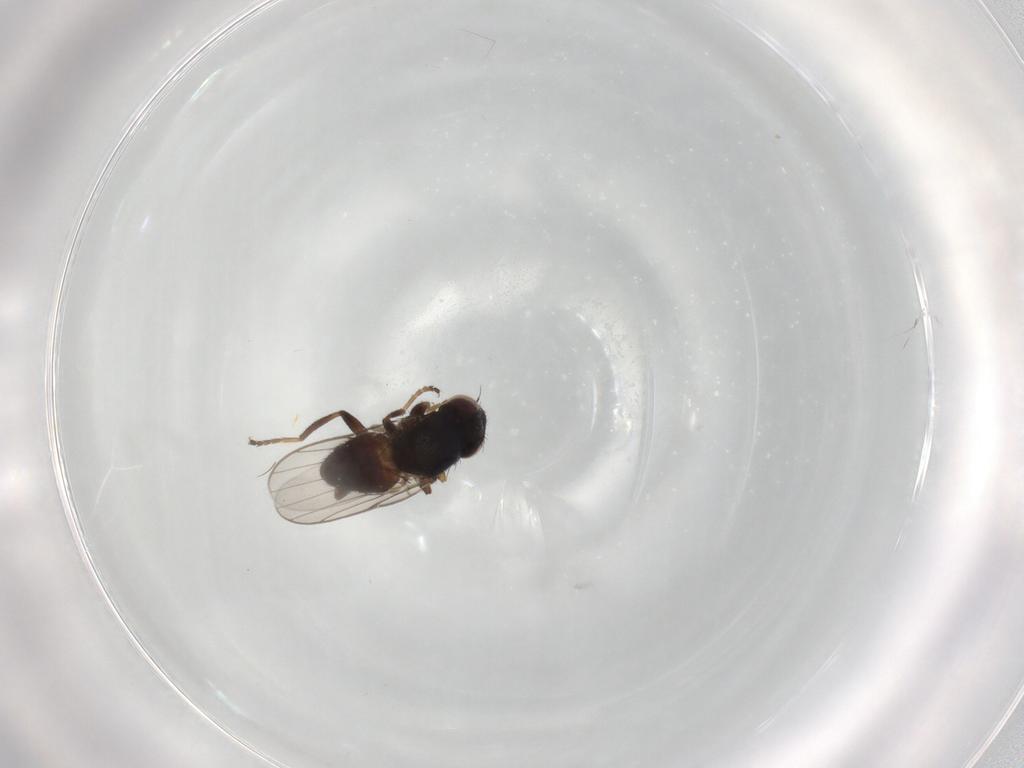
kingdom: Animalia
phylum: Arthropoda
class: Insecta
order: Diptera
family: Chloropidae
